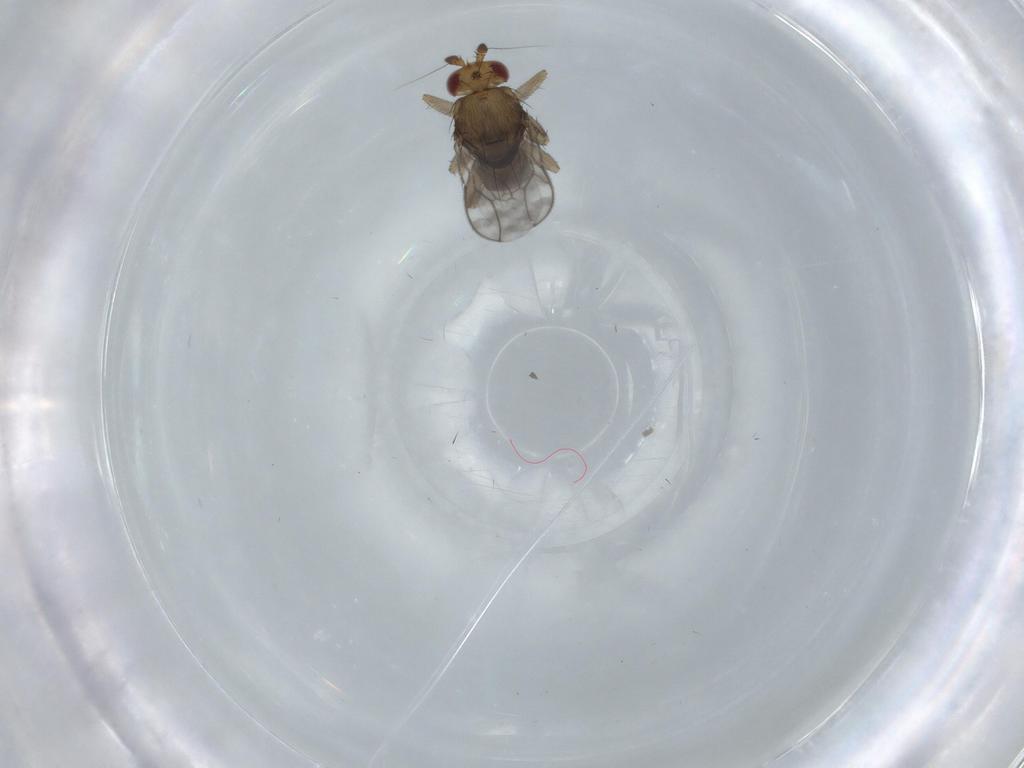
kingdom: Animalia
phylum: Arthropoda
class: Insecta
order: Diptera
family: Sphaeroceridae
